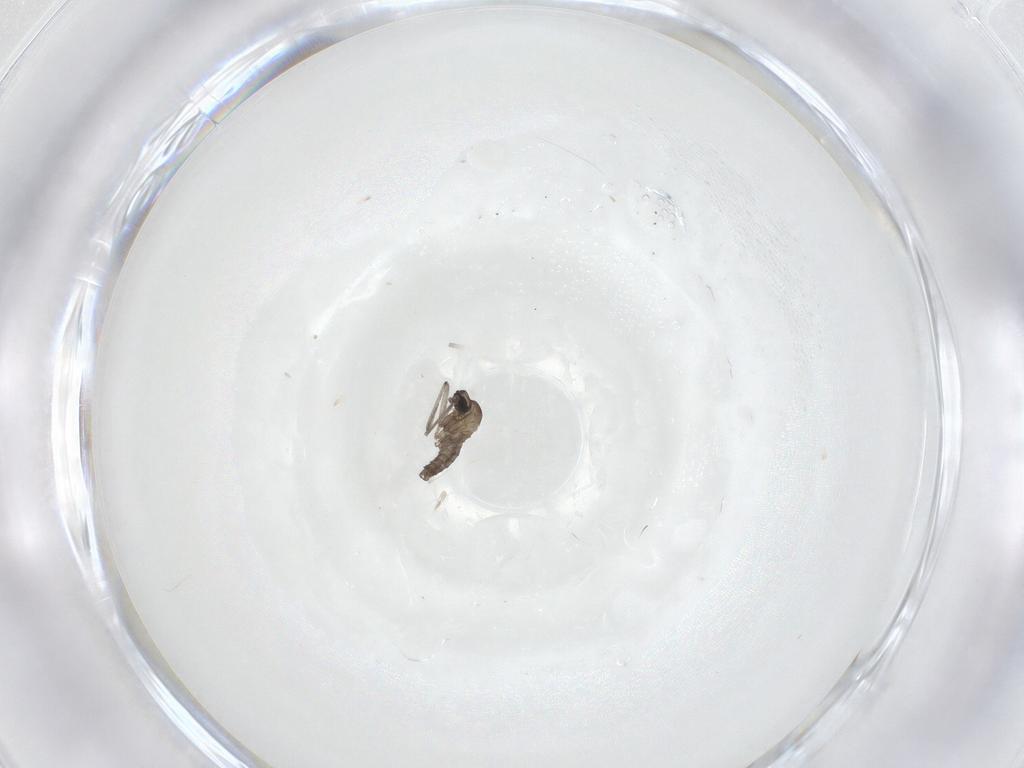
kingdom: Animalia
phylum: Arthropoda
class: Insecta
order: Diptera
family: Cecidomyiidae
